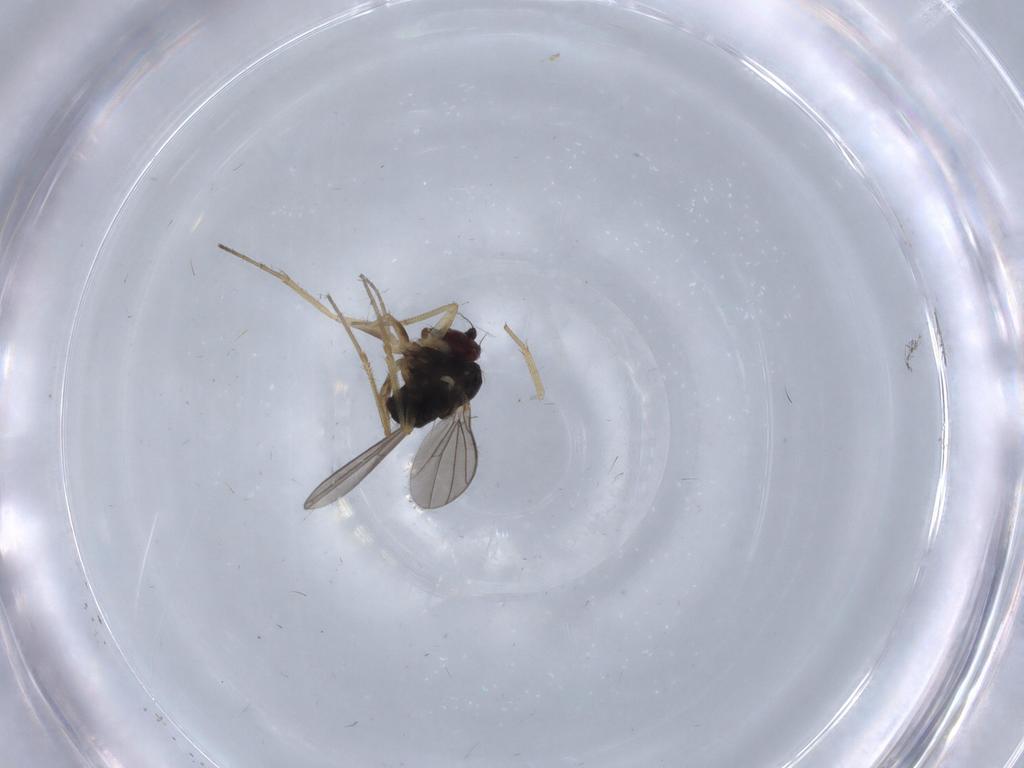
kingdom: Animalia
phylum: Arthropoda
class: Insecta
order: Diptera
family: Dolichopodidae
